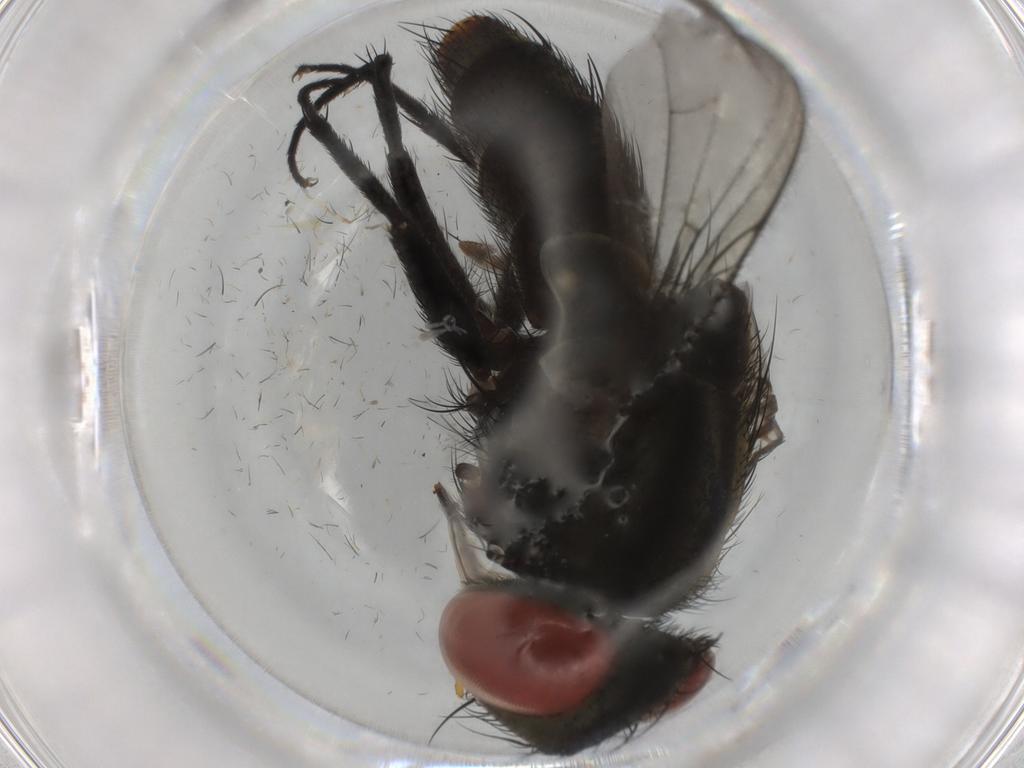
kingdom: Animalia
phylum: Arthropoda
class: Insecta
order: Diptera
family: Sarcophagidae
